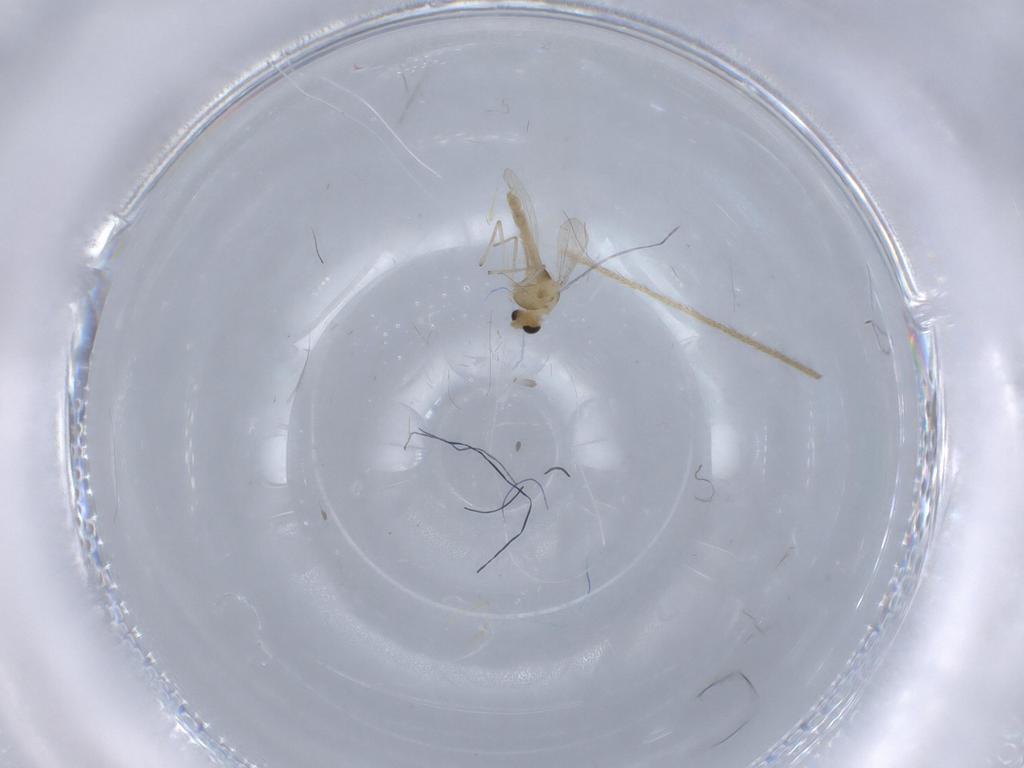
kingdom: Animalia
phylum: Arthropoda
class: Insecta
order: Diptera
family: Chironomidae
